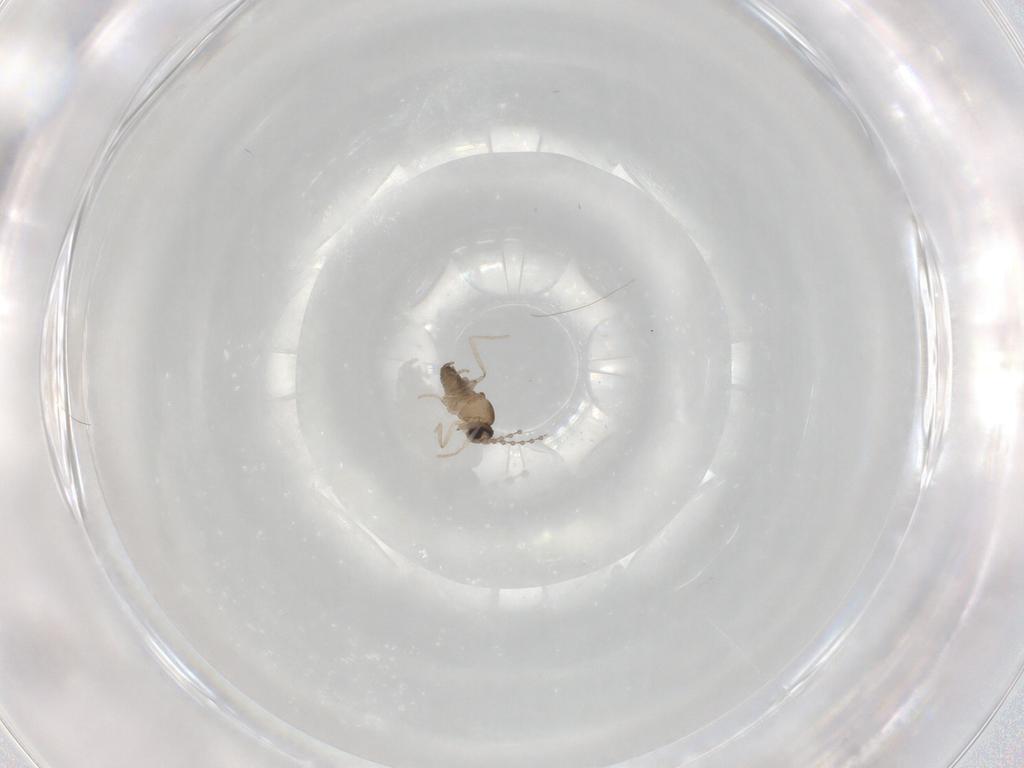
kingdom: Animalia
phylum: Arthropoda
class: Insecta
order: Diptera
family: Cecidomyiidae
